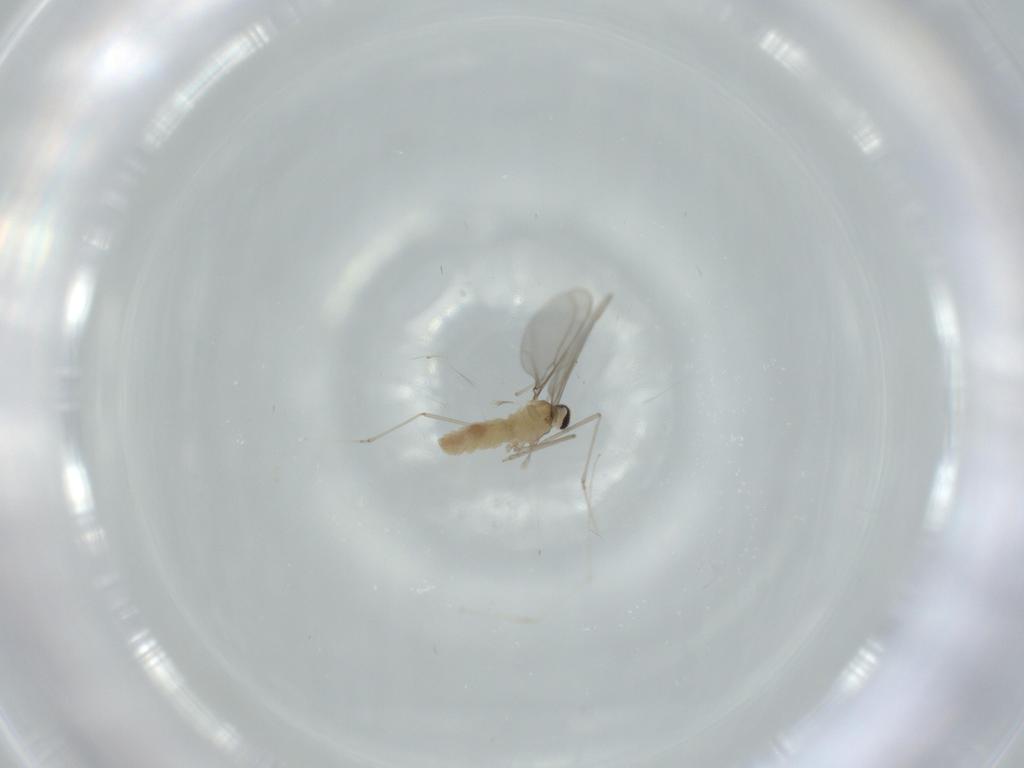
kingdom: Animalia
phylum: Arthropoda
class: Insecta
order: Diptera
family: Cecidomyiidae
